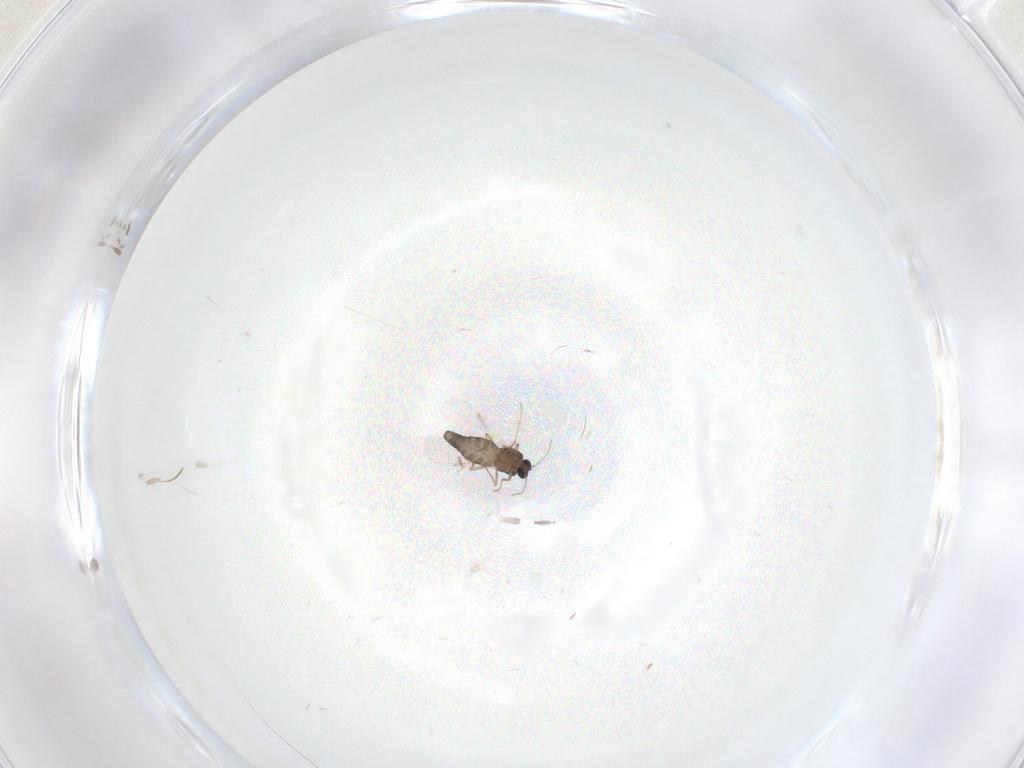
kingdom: Animalia
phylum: Arthropoda
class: Insecta
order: Diptera
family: Ceratopogonidae
